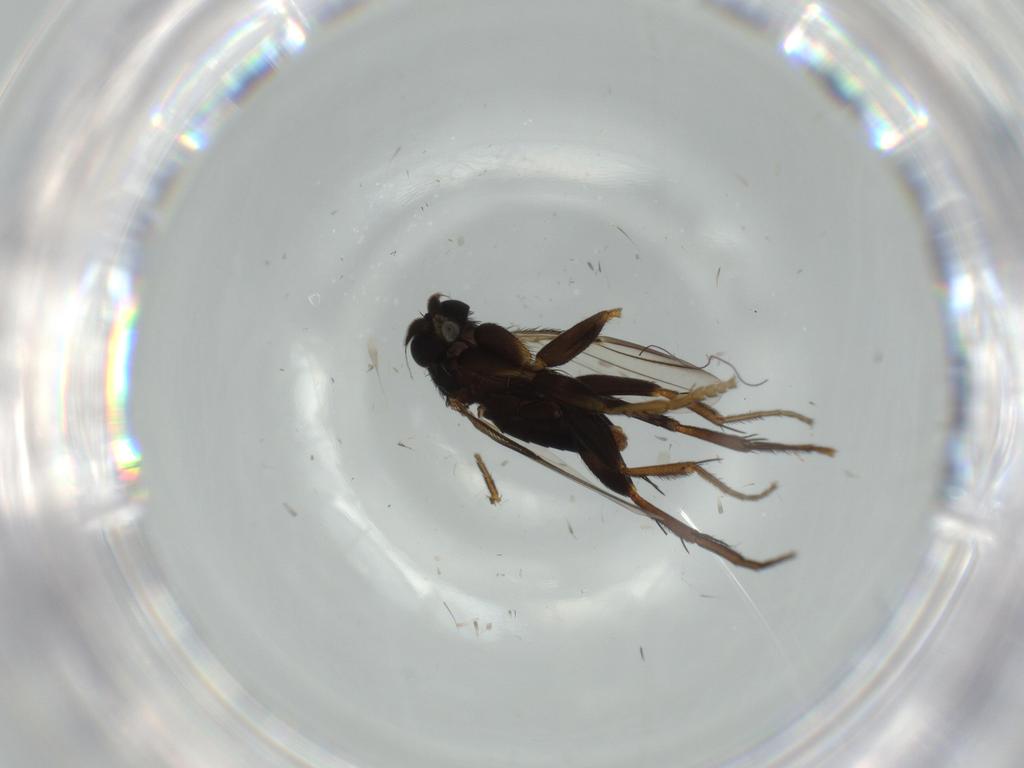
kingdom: Animalia
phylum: Arthropoda
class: Insecta
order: Diptera
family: Phoridae
